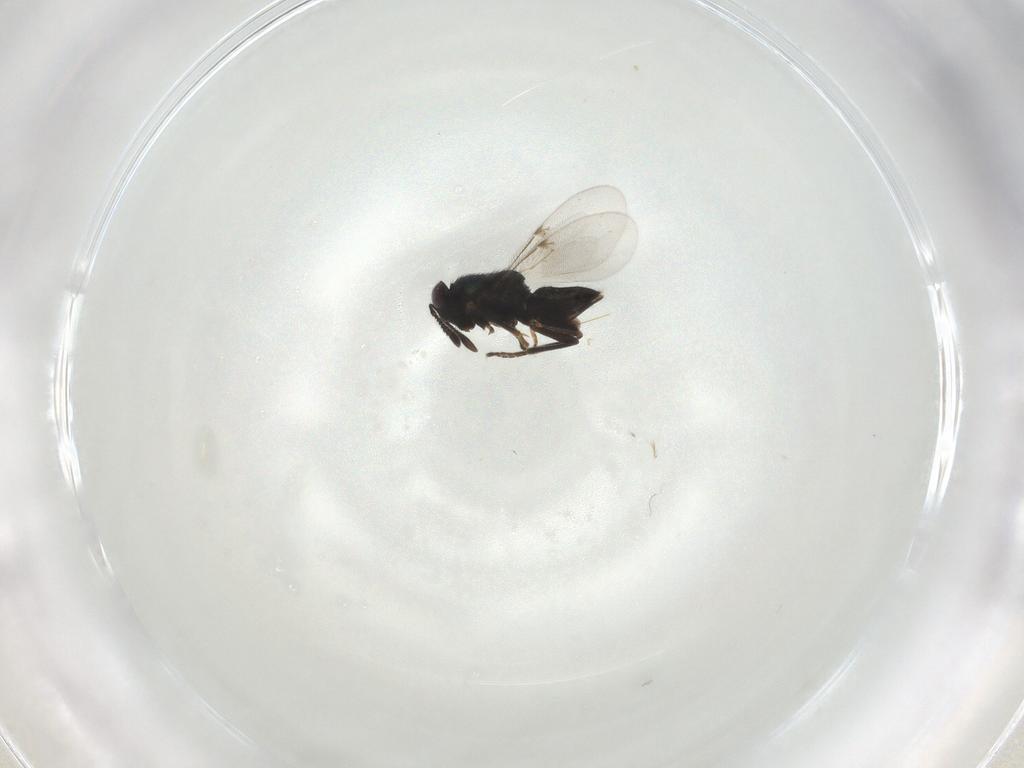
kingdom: Animalia
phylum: Arthropoda
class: Insecta
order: Hymenoptera
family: Encyrtidae
